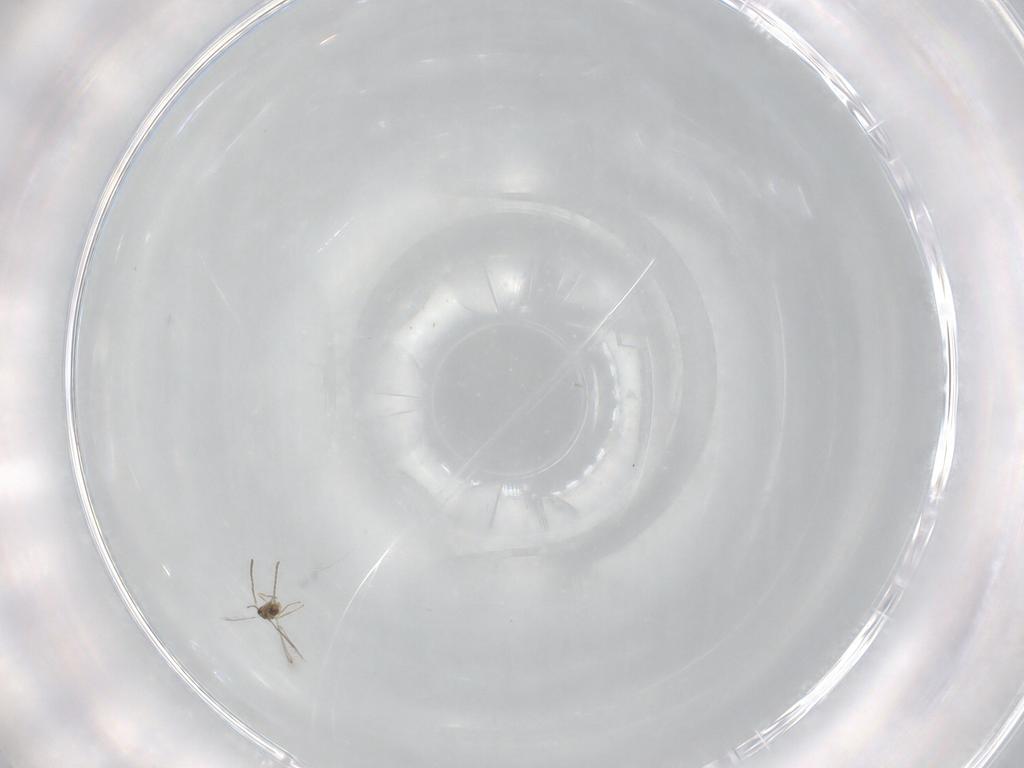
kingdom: Animalia
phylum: Arthropoda
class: Insecta
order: Hymenoptera
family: Mymaridae
